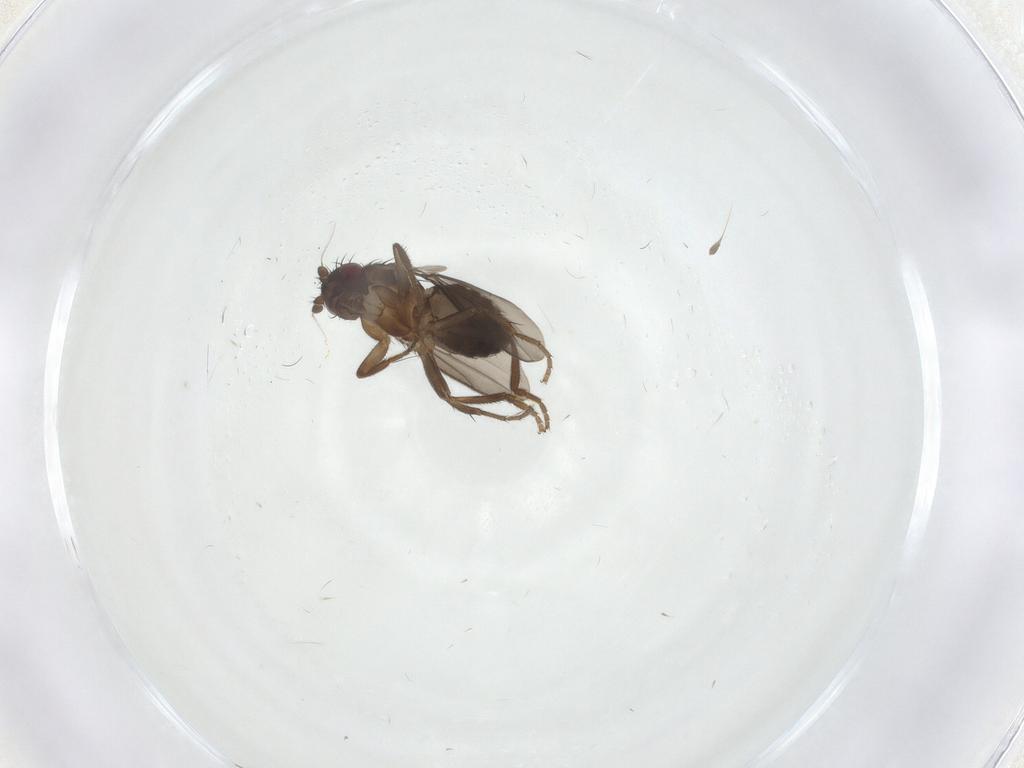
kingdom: Animalia
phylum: Arthropoda
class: Insecta
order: Diptera
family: Sphaeroceridae
